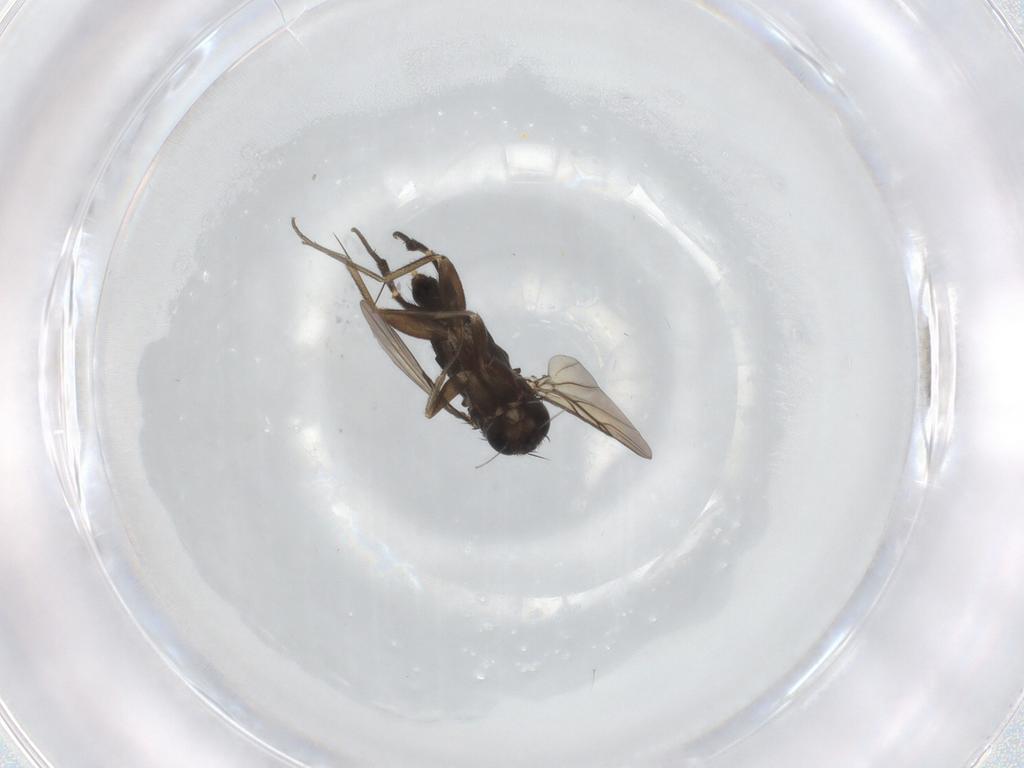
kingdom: Animalia
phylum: Arthropoda
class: Insecta
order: Diptera
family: Phoridae
